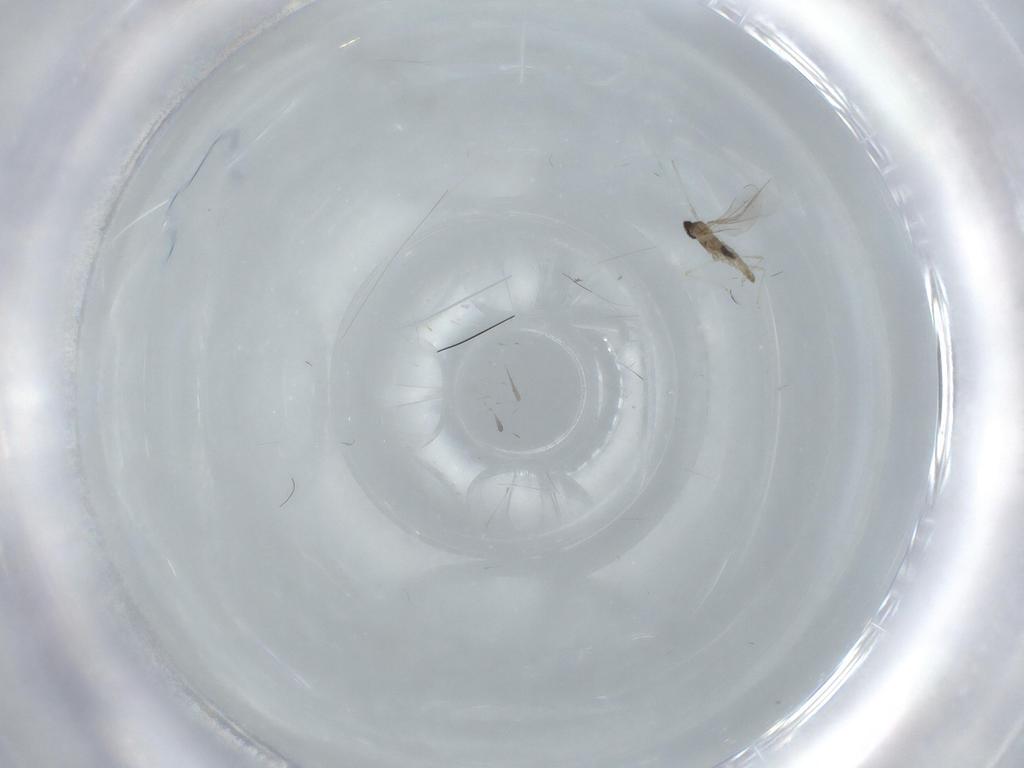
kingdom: Animalia
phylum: Arthropoda
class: Insecta
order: Diptera
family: Cecidomyiidae
